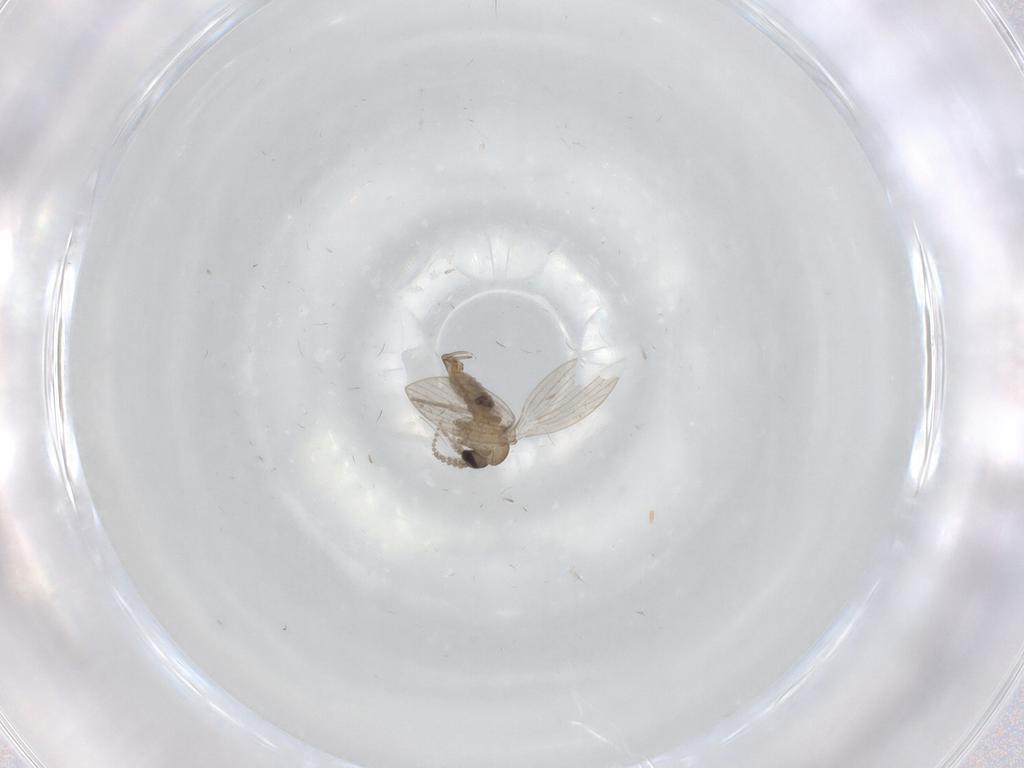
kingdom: Animalia
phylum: Arthropoda
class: Insecta
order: Diptera
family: Psychodidae
